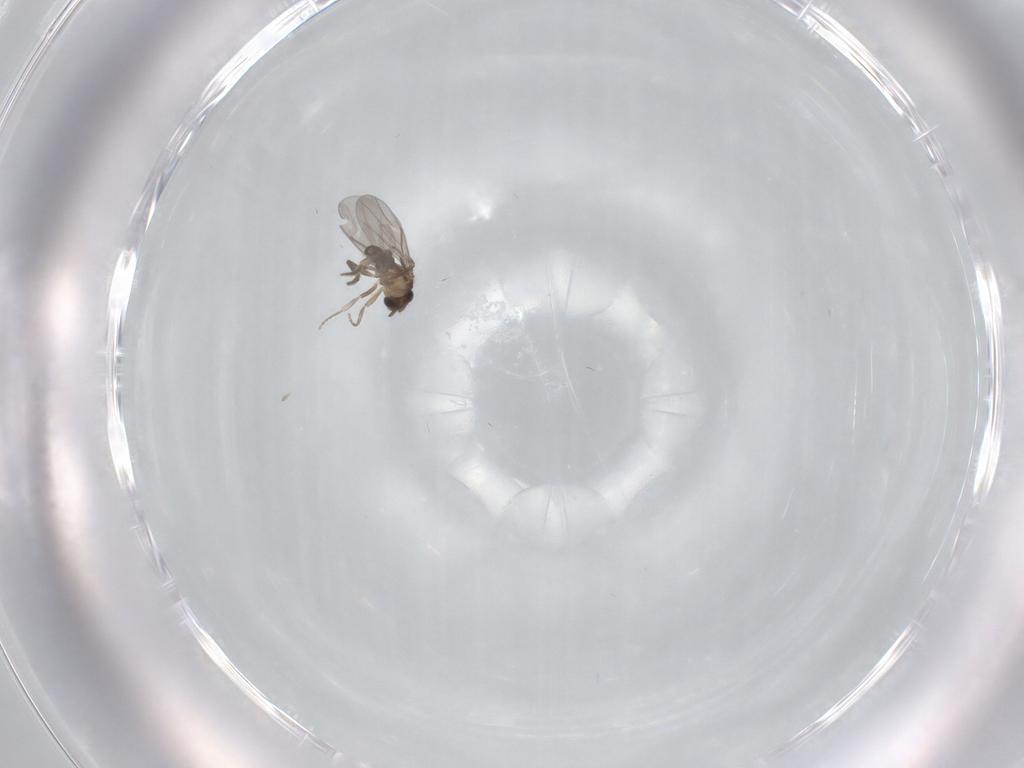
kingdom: Animalia
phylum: Arthropoda
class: Insecta
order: Diptera
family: Phoridae
